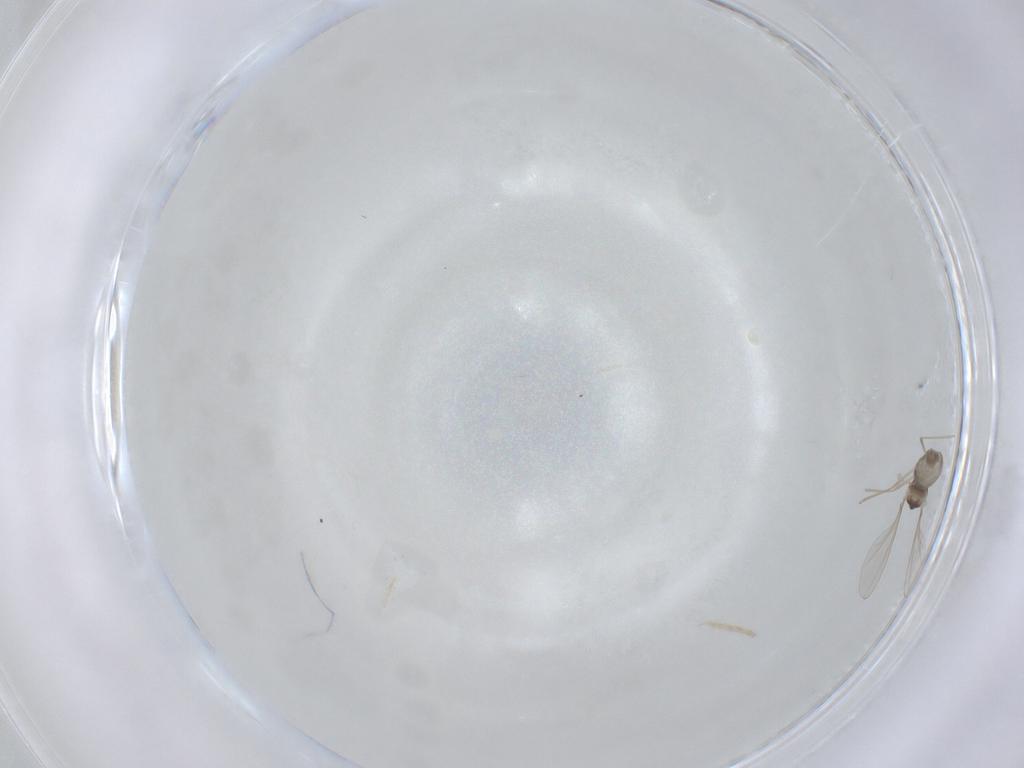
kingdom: Animalia
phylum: Arthropoda
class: Insecta
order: Diptera
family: Cecidomyiidae
